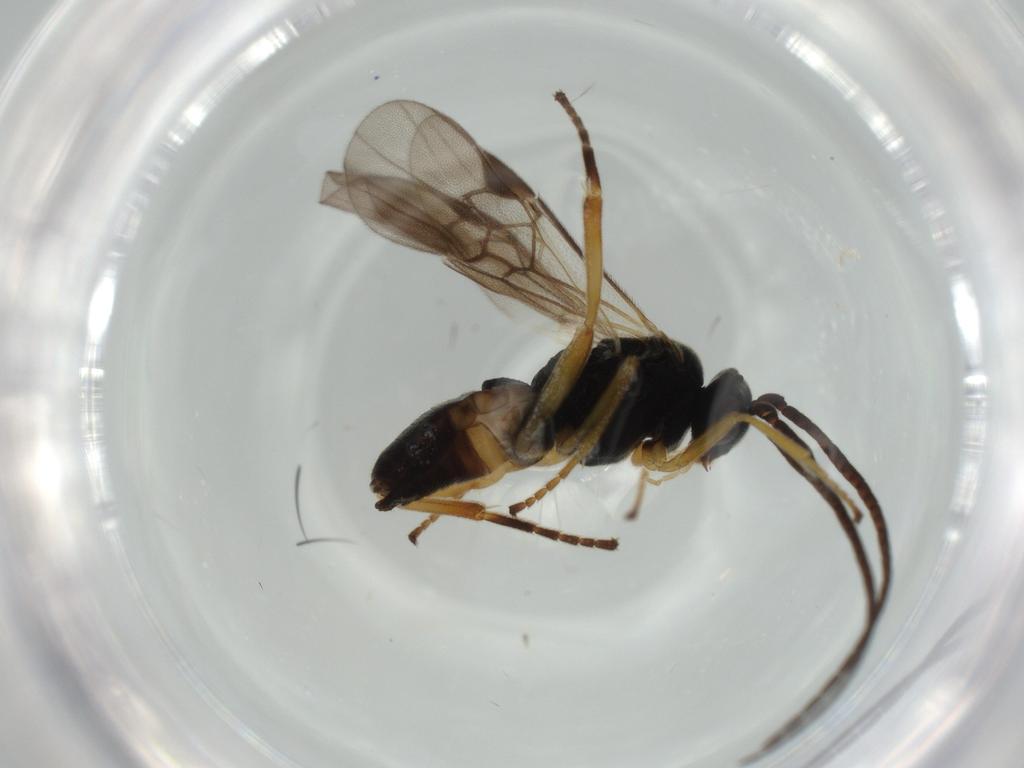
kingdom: Animalia
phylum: Arthropoda
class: Insecta
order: Hymenoptera
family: Braconidae
